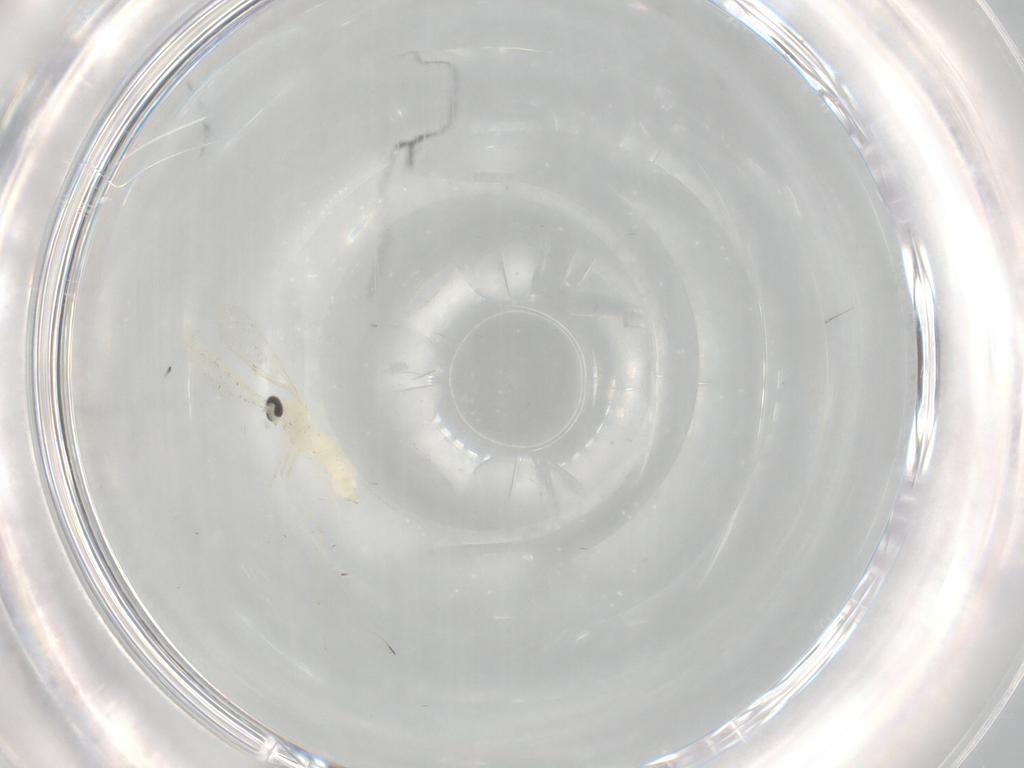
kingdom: Animalia
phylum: Arthropoda
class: Insecta
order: Diptera
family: Cecidomyiidae
